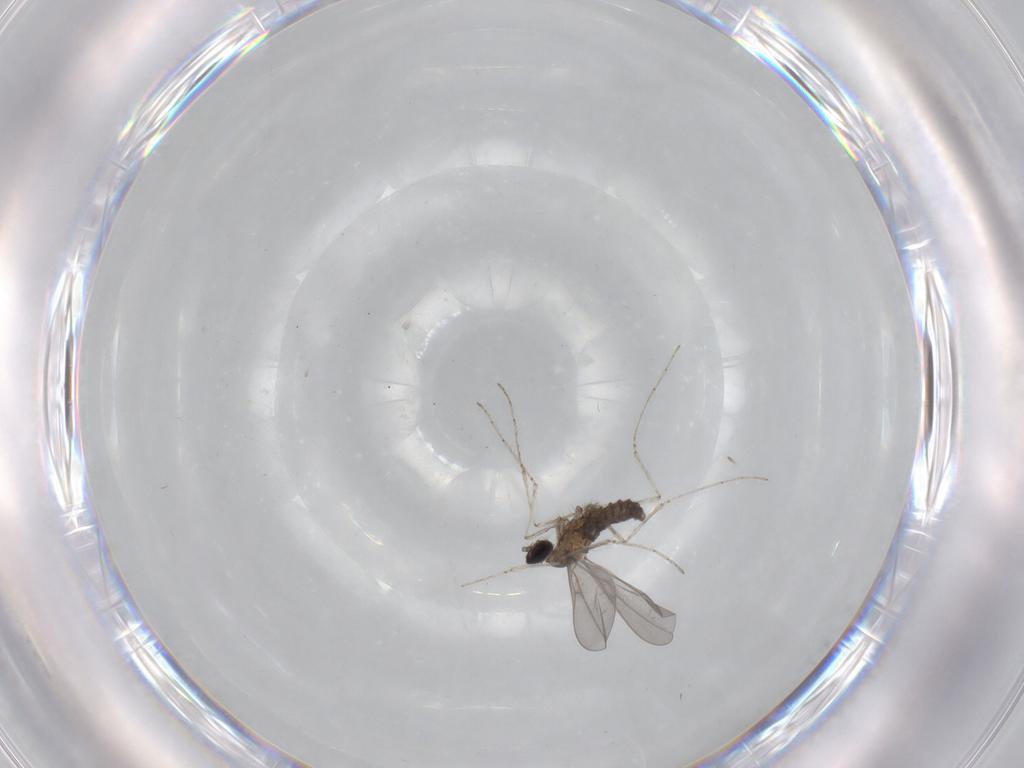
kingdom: Animalia
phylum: Arthropoda
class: Insecta
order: Diptera
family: Cecidomyiidae
